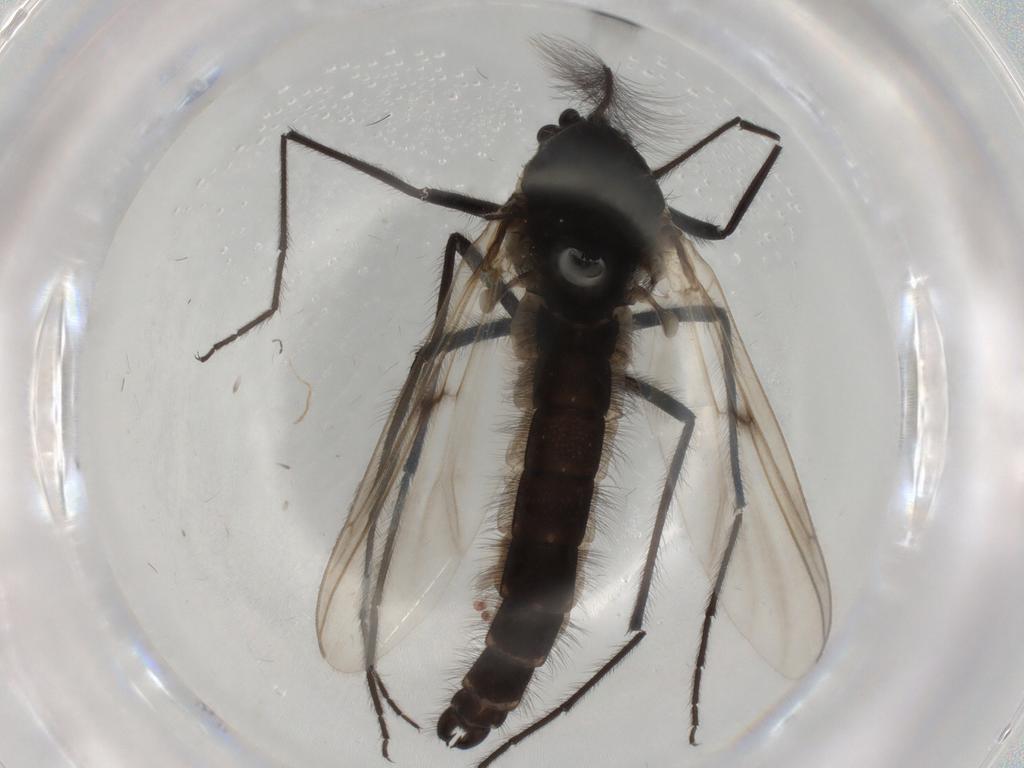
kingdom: Animalia
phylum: Arthropoda
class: Insecta
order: Diptera
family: Chironomidae
